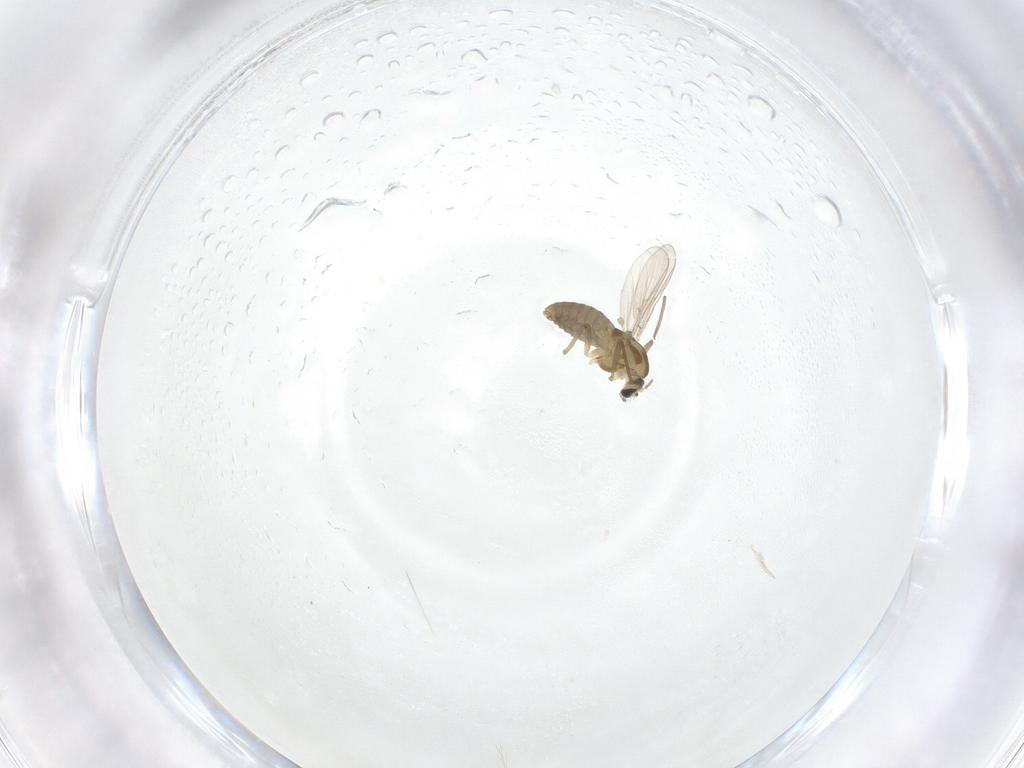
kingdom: Animalia
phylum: Arthropoda
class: Insecta
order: Diptera
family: Chironomidae
